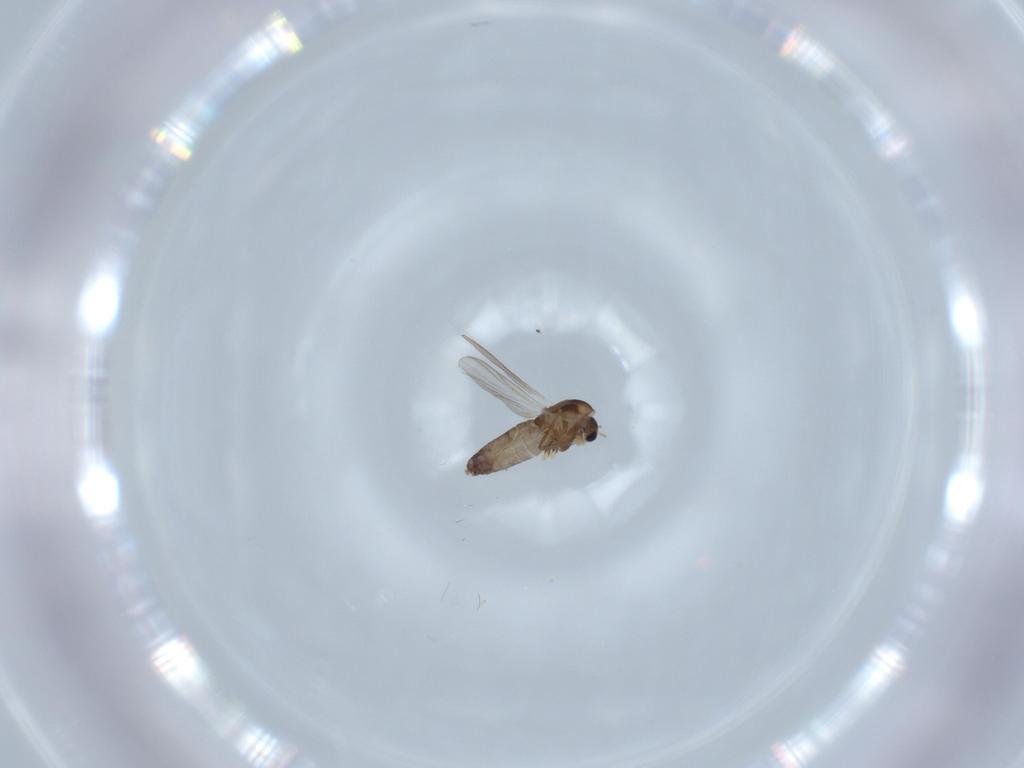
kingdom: Animalia
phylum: Arthropoda
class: Insecta
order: Diptera
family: Chironomidae
